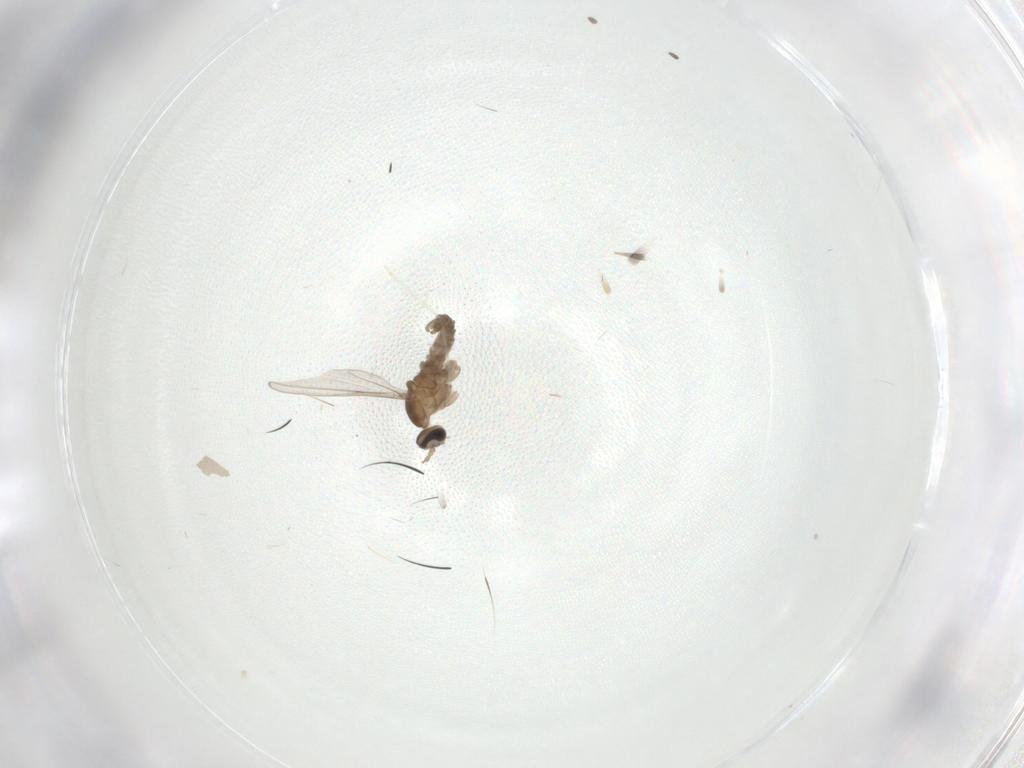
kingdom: Animalia
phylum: Arthropoda
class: Insecta
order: Diptera
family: Phoridae
